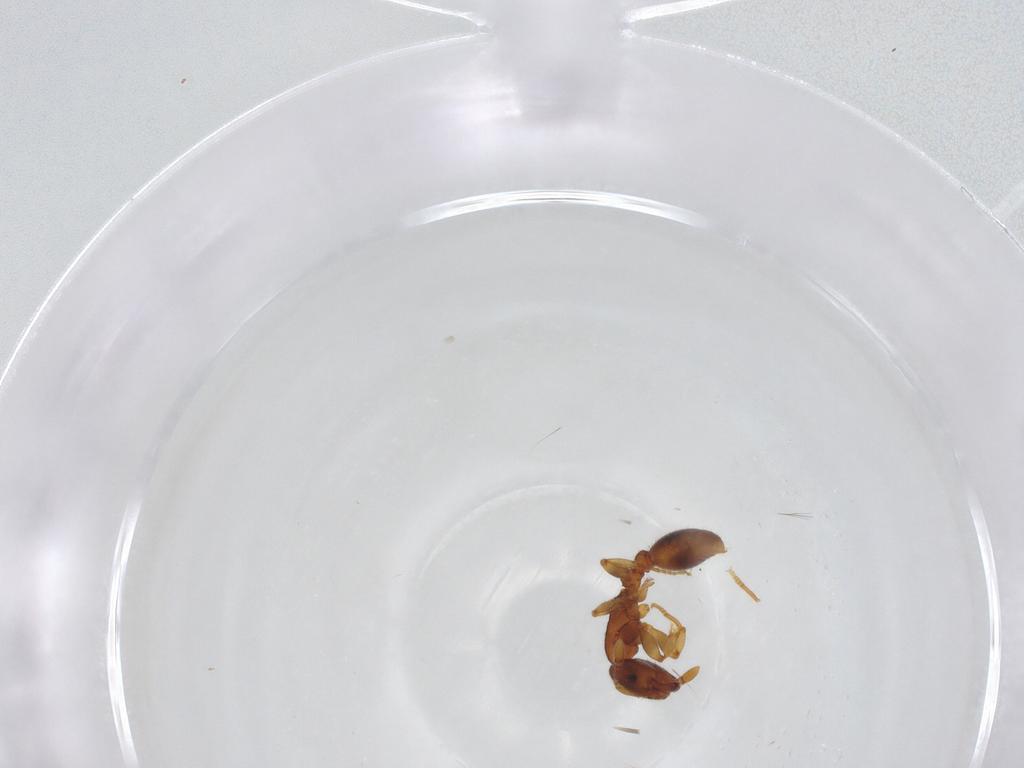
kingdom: Animalia
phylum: Arthropoda
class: Insecta
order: Hymenoptera
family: Formicidae
